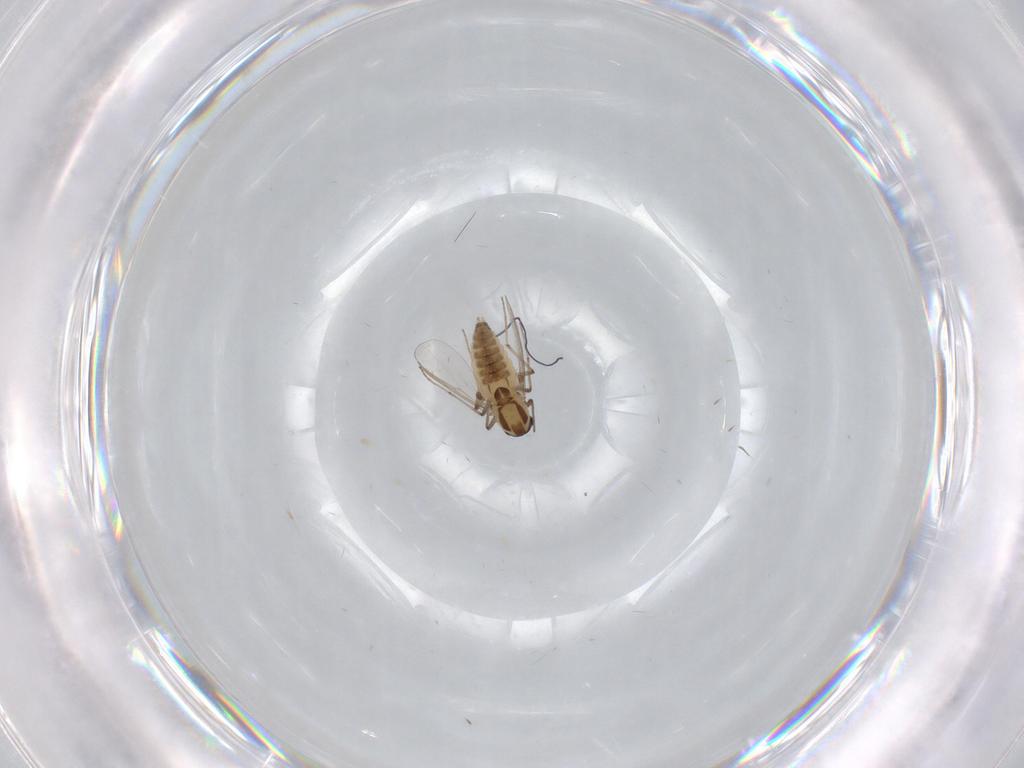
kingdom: Animalia
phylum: Arthropoda
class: Insecta
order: Diptera
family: Chironomidae
